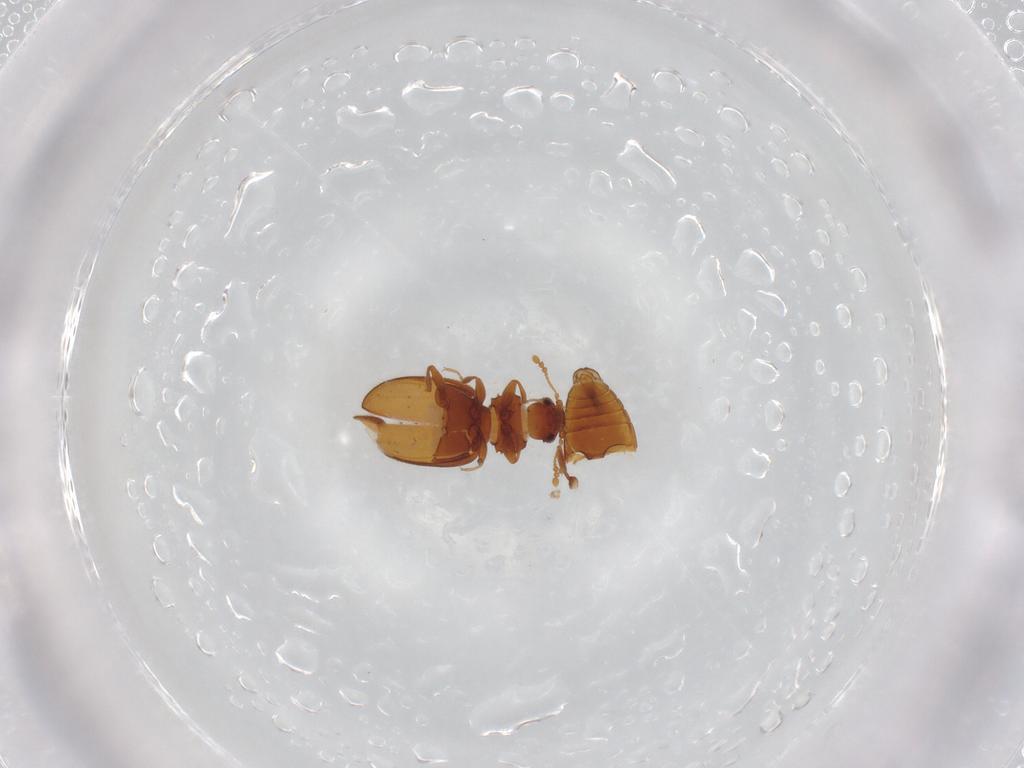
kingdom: Animalia
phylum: Arthropoda
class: Insecta
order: Coleoptera
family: Latridiidae
